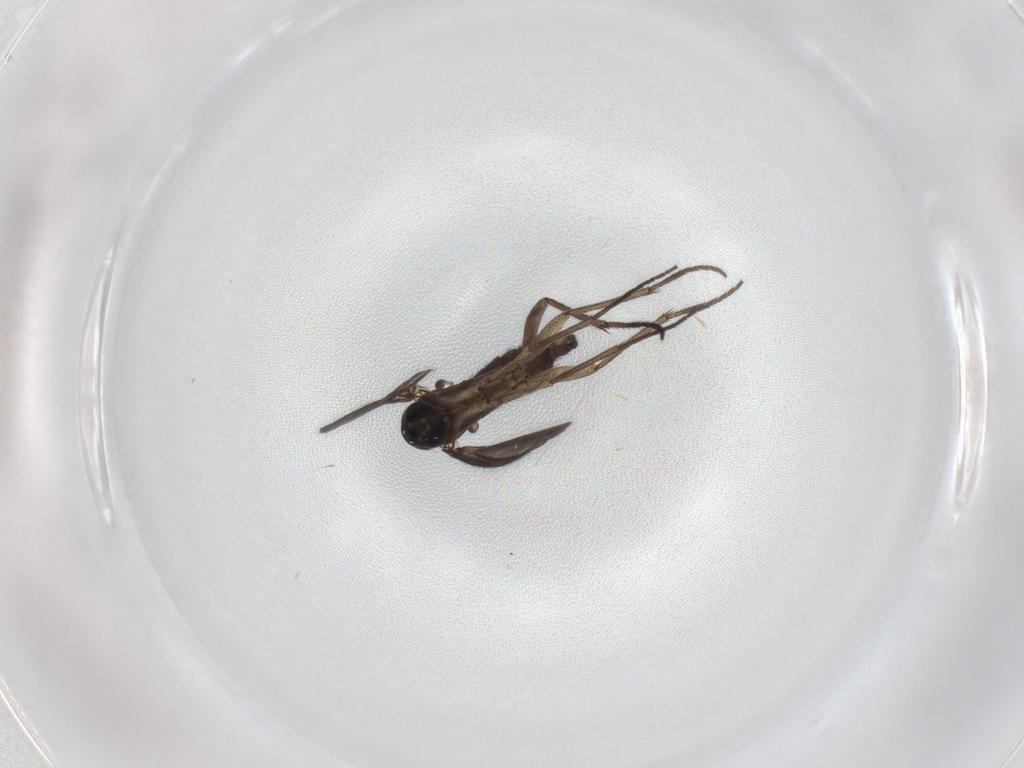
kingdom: Animalia
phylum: Arthropoda
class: Insecta
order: Diptera
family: Sciaridae
